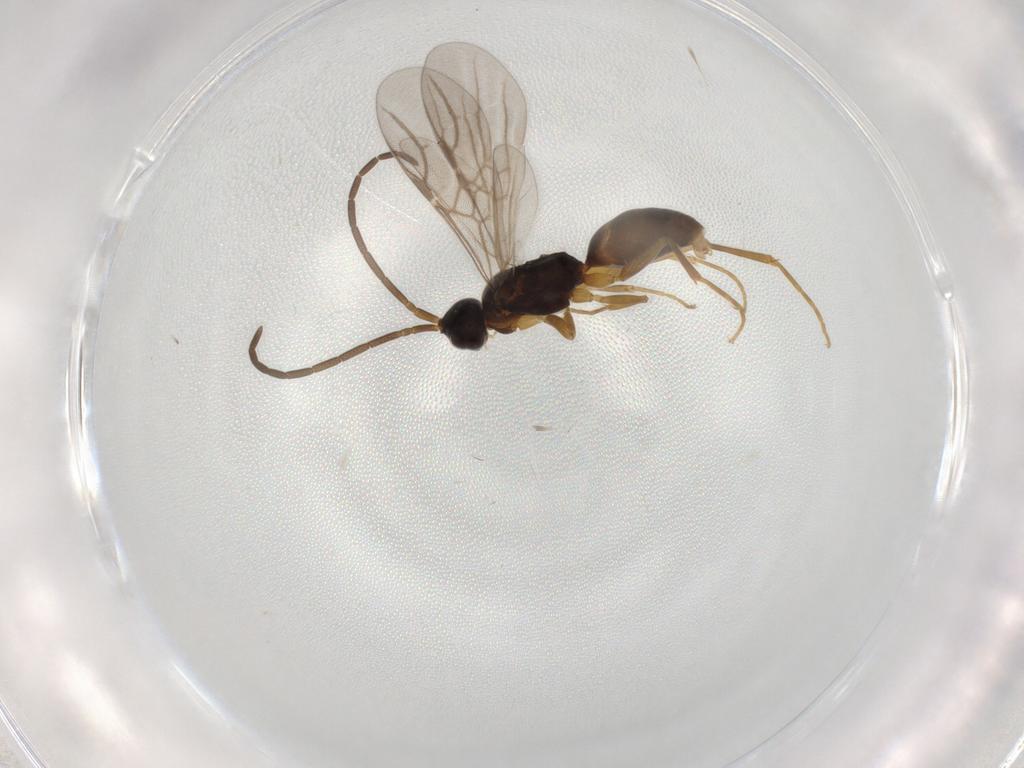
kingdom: Animalia
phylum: Arthropoda
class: Insecta
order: Hymenoptera
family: Embolemidae
